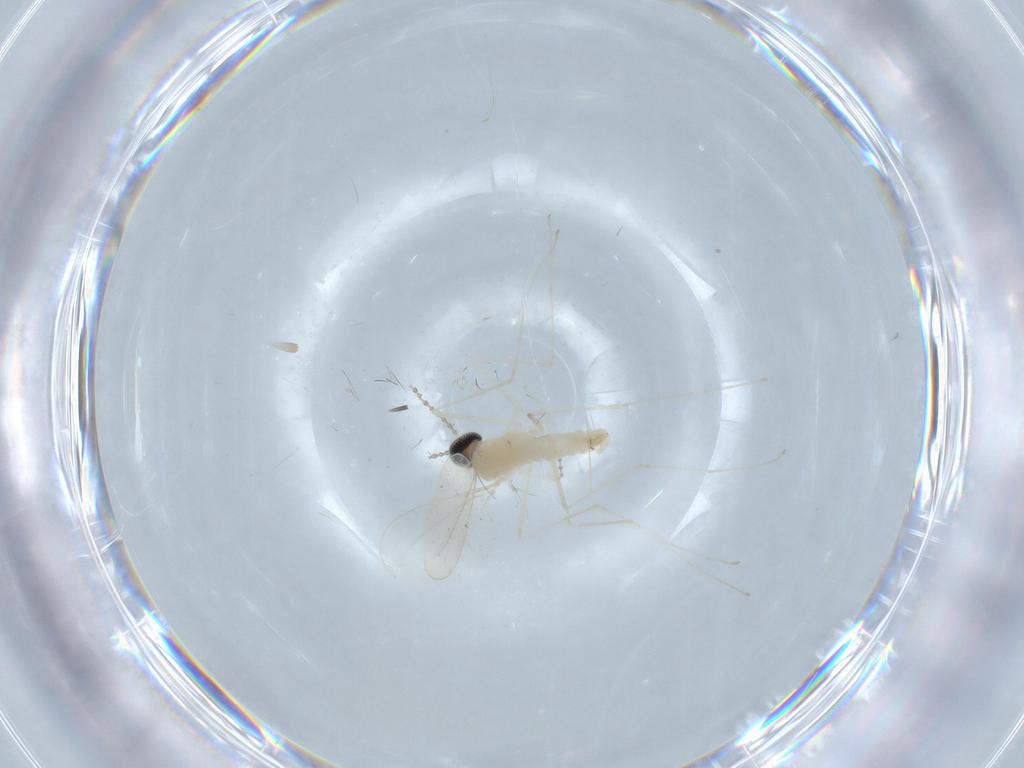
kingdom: Animalia
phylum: Arthropoda
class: Insecta
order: Diptera
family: Cecidomyiidae
